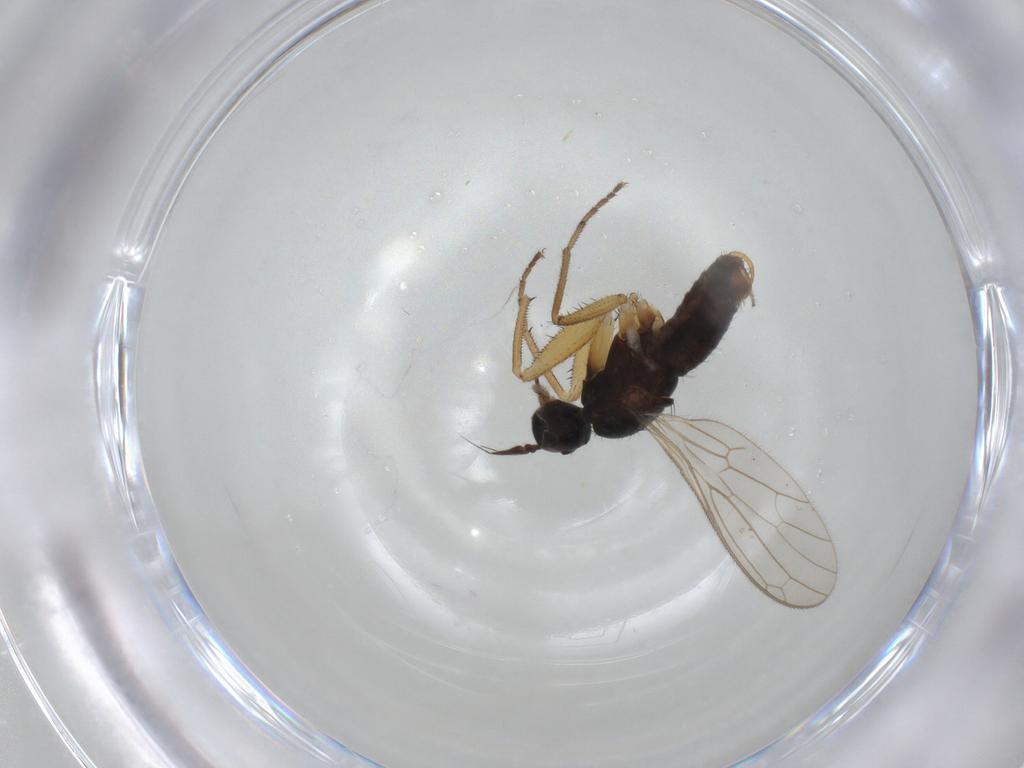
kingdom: Animalia
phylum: Arthropoda
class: Insecta
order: Diptera
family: Empididae
